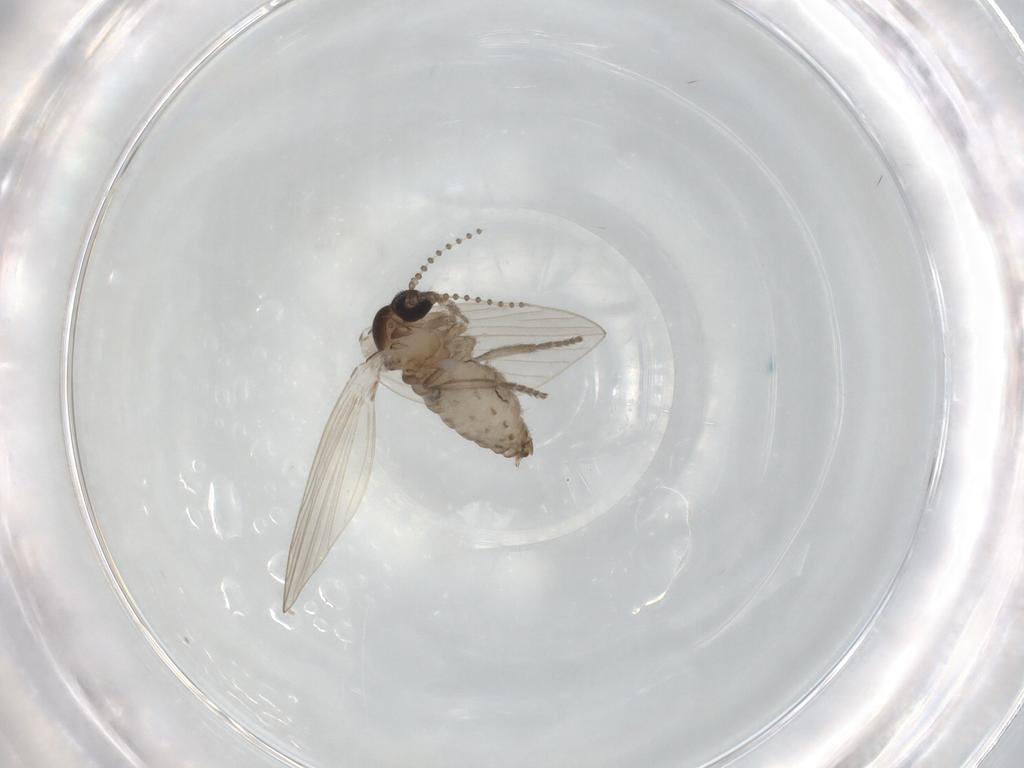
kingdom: Animalia
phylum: Arthropoda
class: Insecta
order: Diptera
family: Psychodidae
